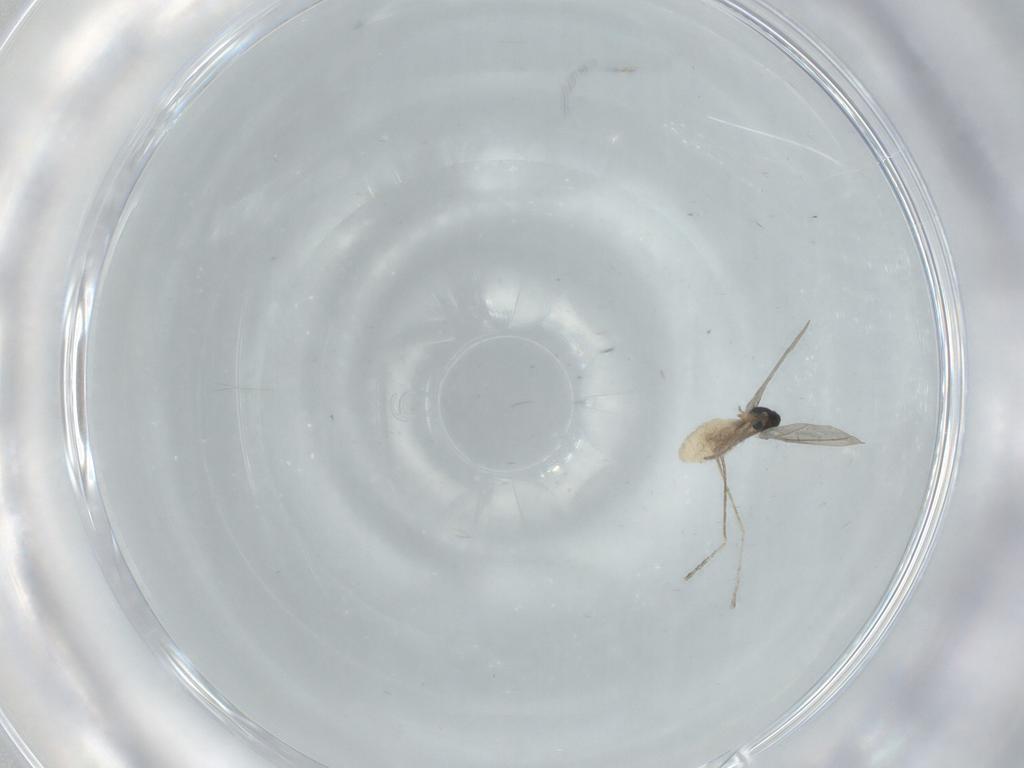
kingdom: Animalia
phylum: Arthropoda
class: Insecta
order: Diptera
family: Cecidomyiidae
